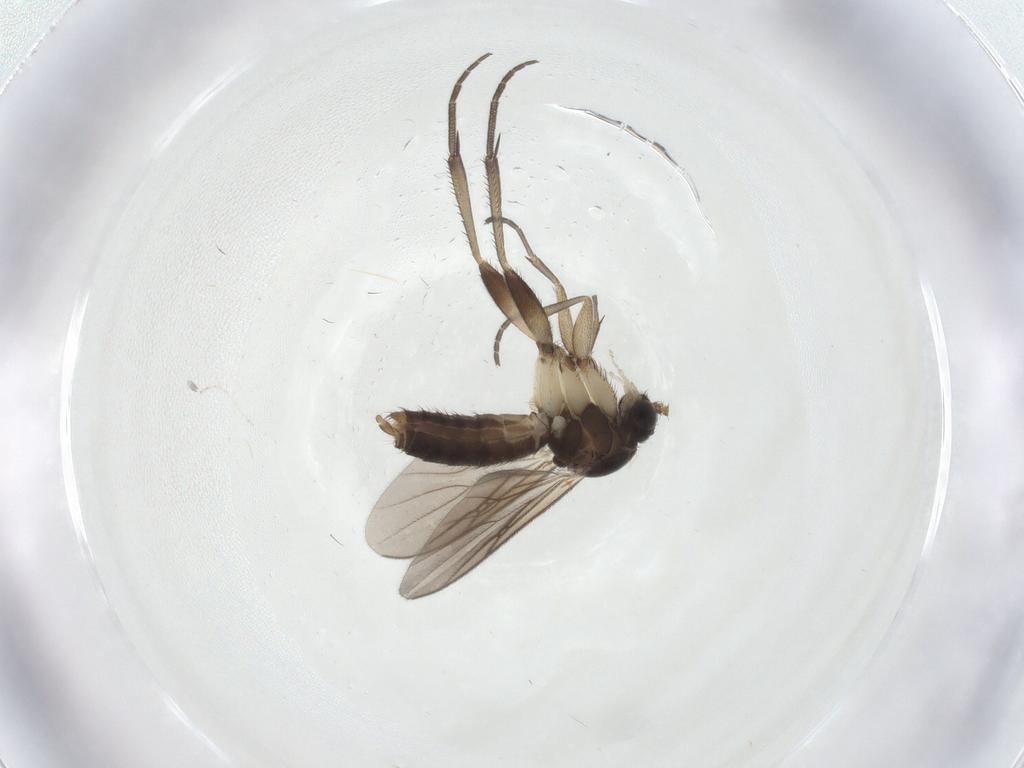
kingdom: Animalia
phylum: Arthropoda
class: Insecta
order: Diptera
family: Cecidomyiidae
